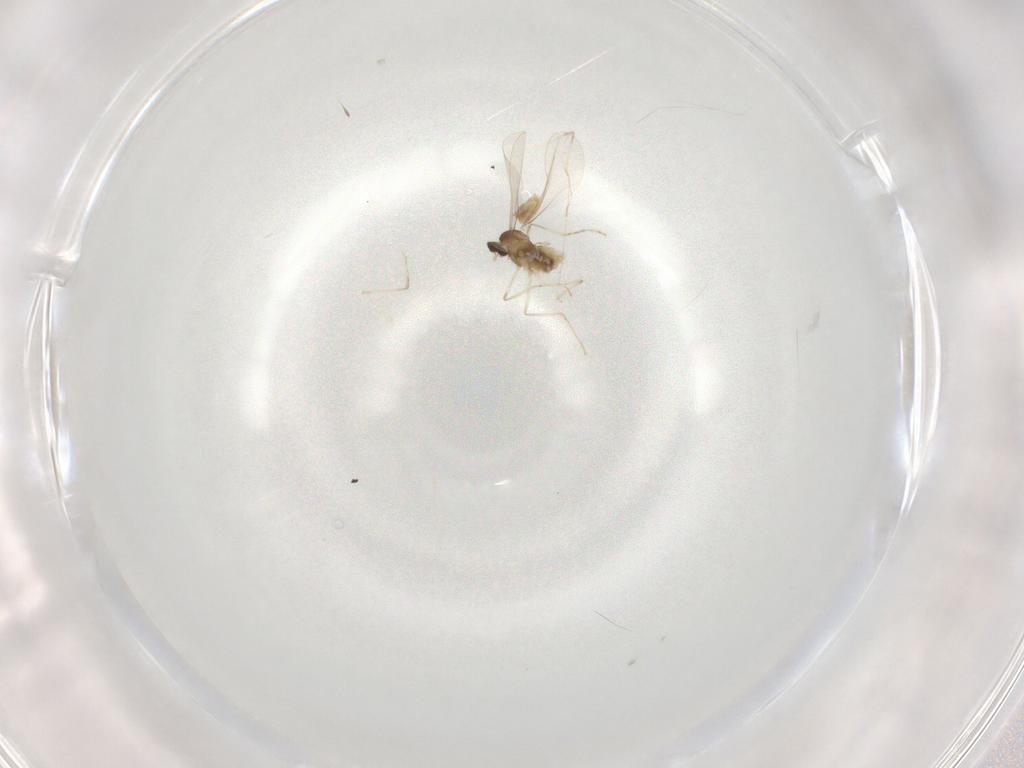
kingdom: Animalia
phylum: Arthropoda
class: Insecta
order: Diptera
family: Cecidomyiidae
